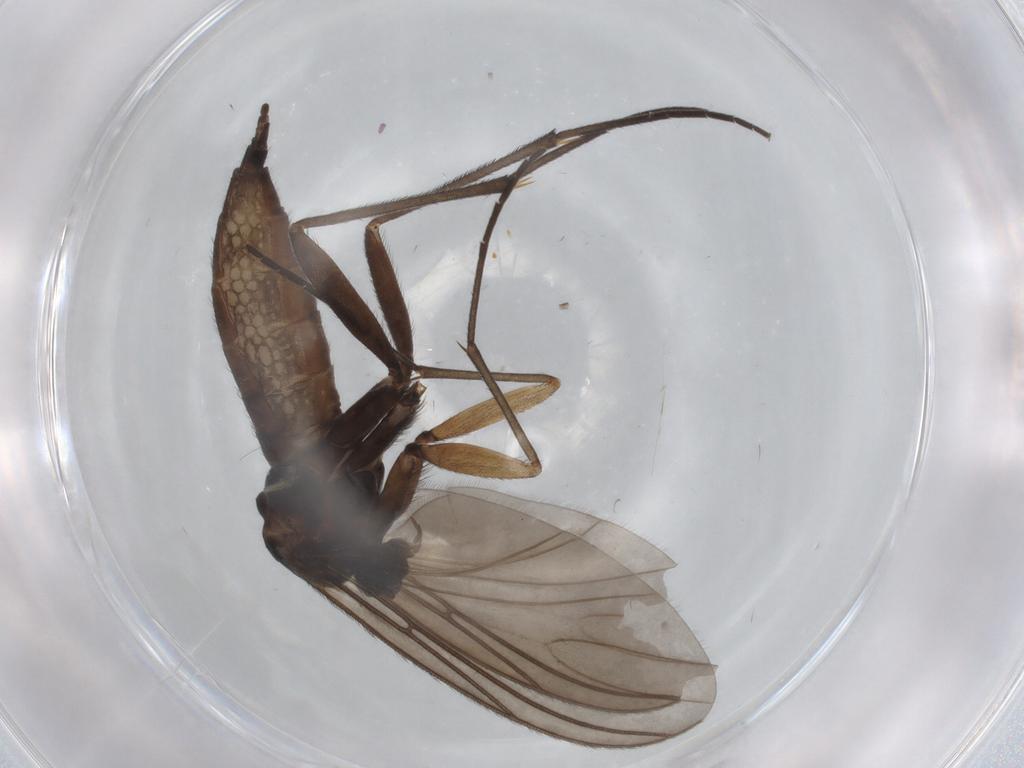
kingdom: Animalia
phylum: Arthropoda
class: Insecta
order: Diptera
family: Sciaridae
